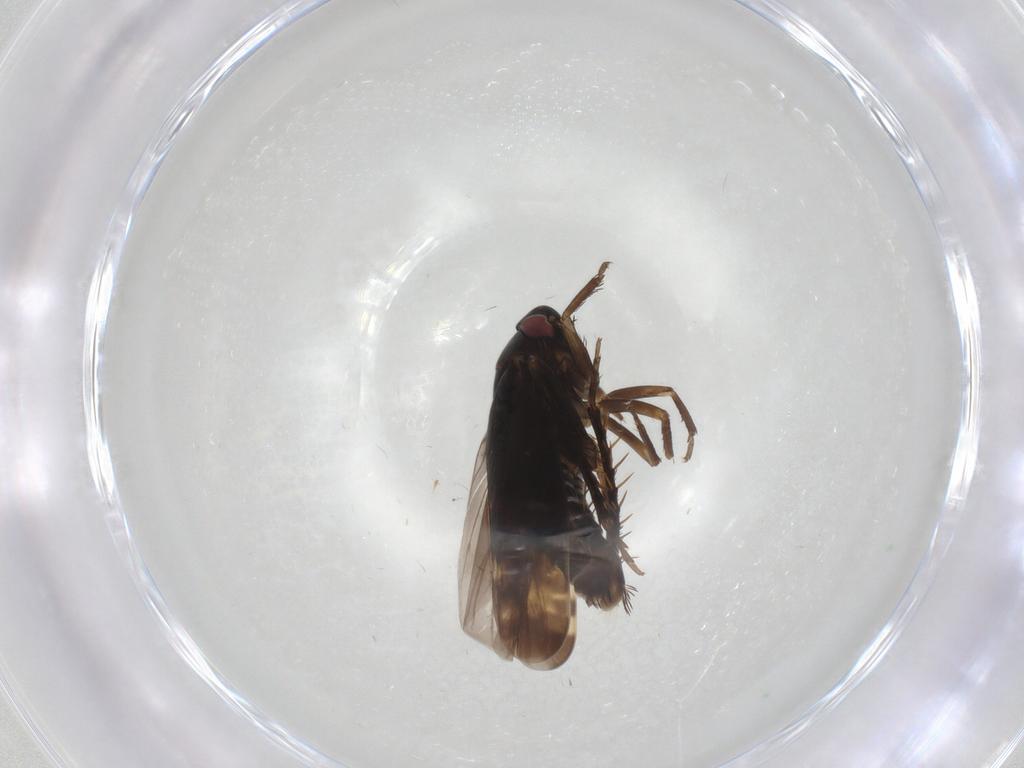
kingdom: Animalia
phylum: Arthropoda
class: Insecta
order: Hemiptera
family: Cicadellidae
